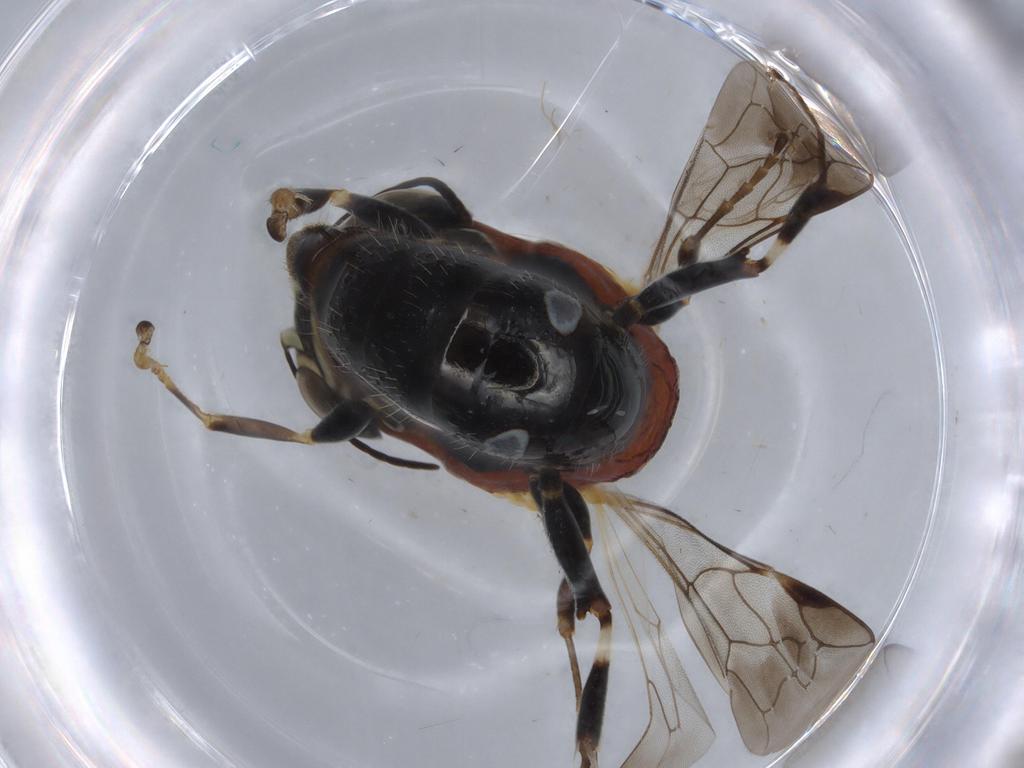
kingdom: Animalia
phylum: Arthropoda
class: Insecta
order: Hymenoptera
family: Bembicidae
